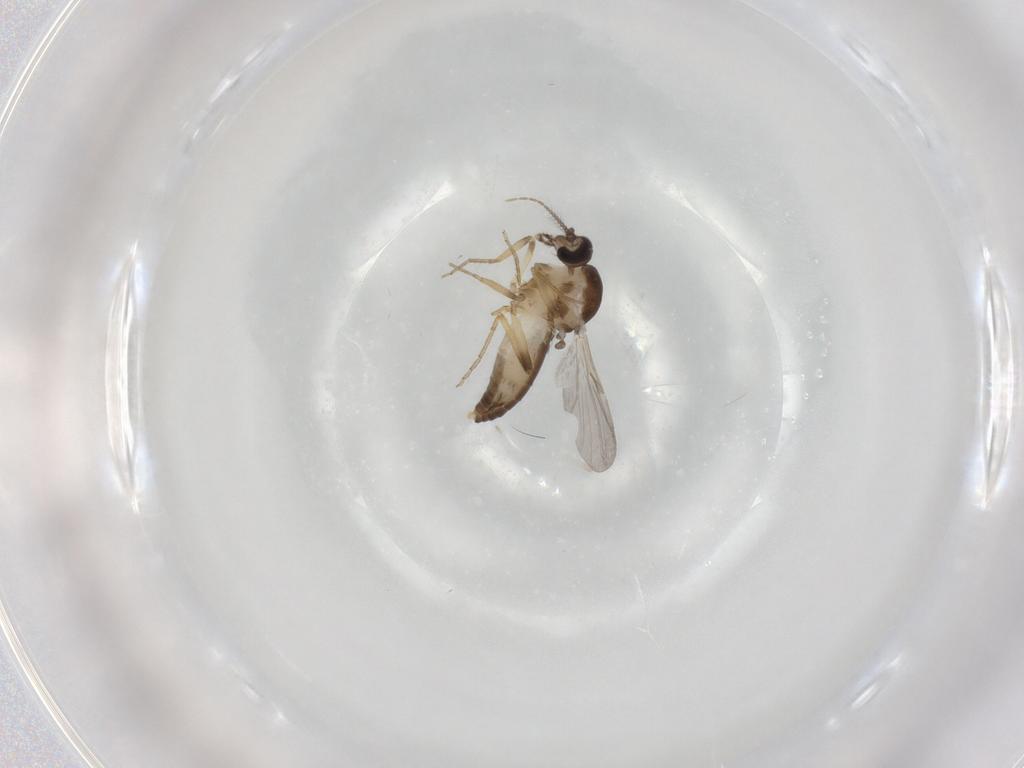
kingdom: Animalia
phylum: Arthropoda
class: Insecta
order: Diptera
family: Ceratopogonidae
